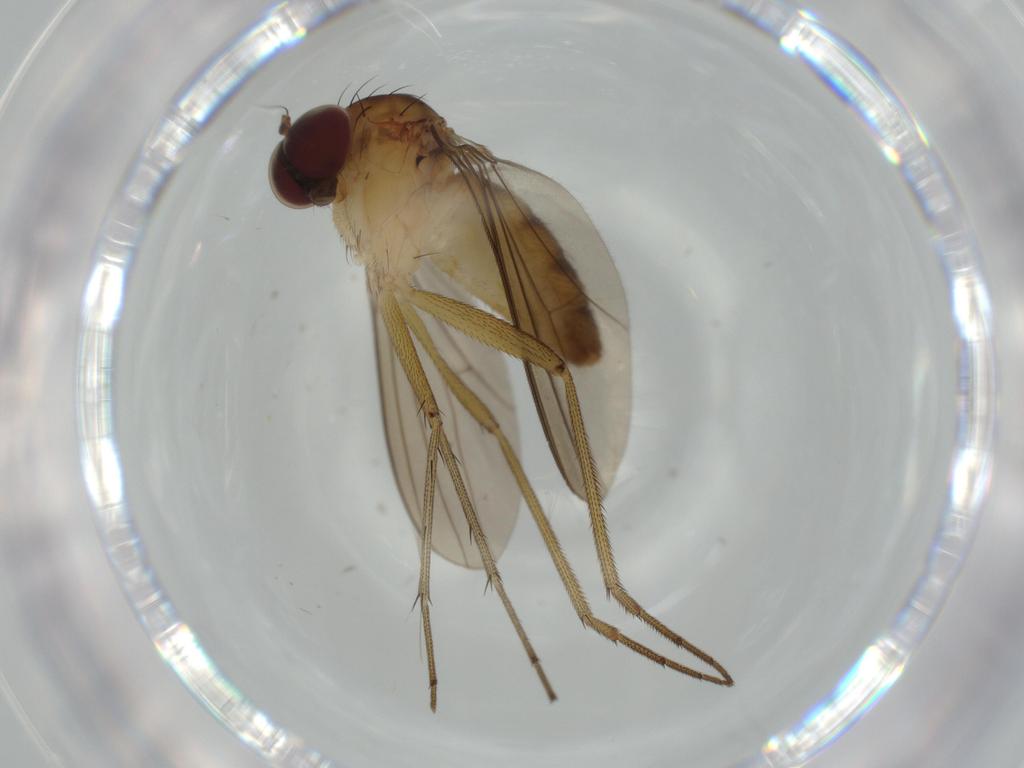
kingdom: Animalia
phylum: Arthropoda
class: Insecta
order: Diptera
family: Dolichopodidae
